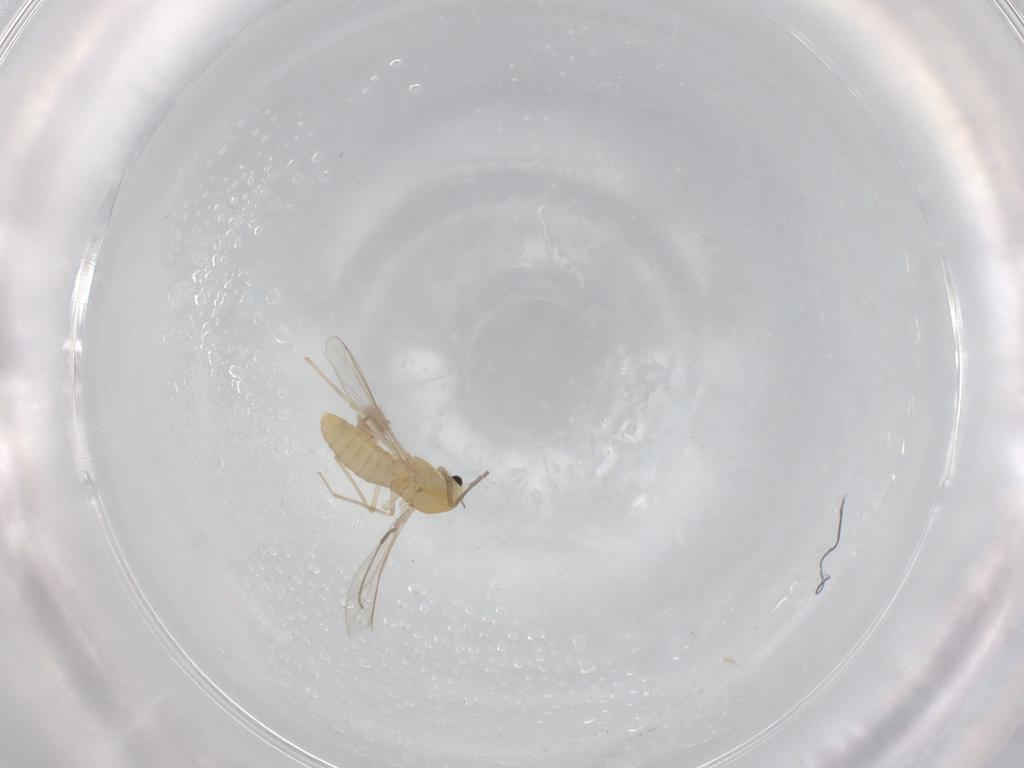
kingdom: Animalia
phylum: Arthropoda
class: Insecta
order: Diptera
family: Chironomidae
